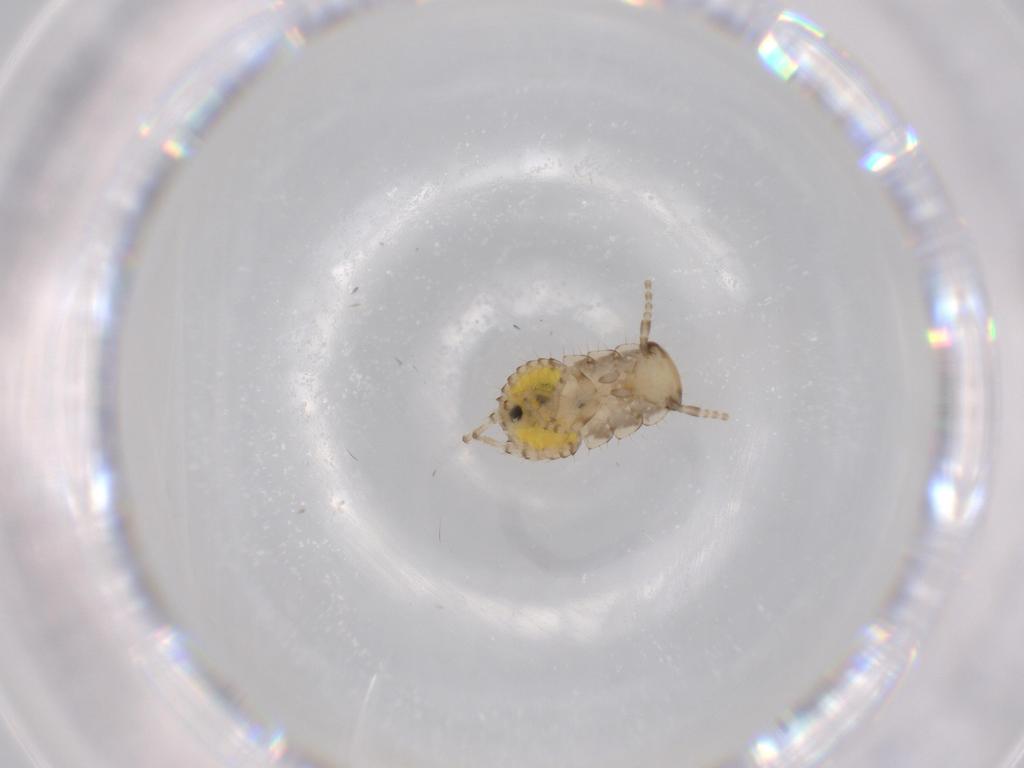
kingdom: Animalia
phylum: Arthropoda
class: Insecta
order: Blattodea
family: Ectobiidae
